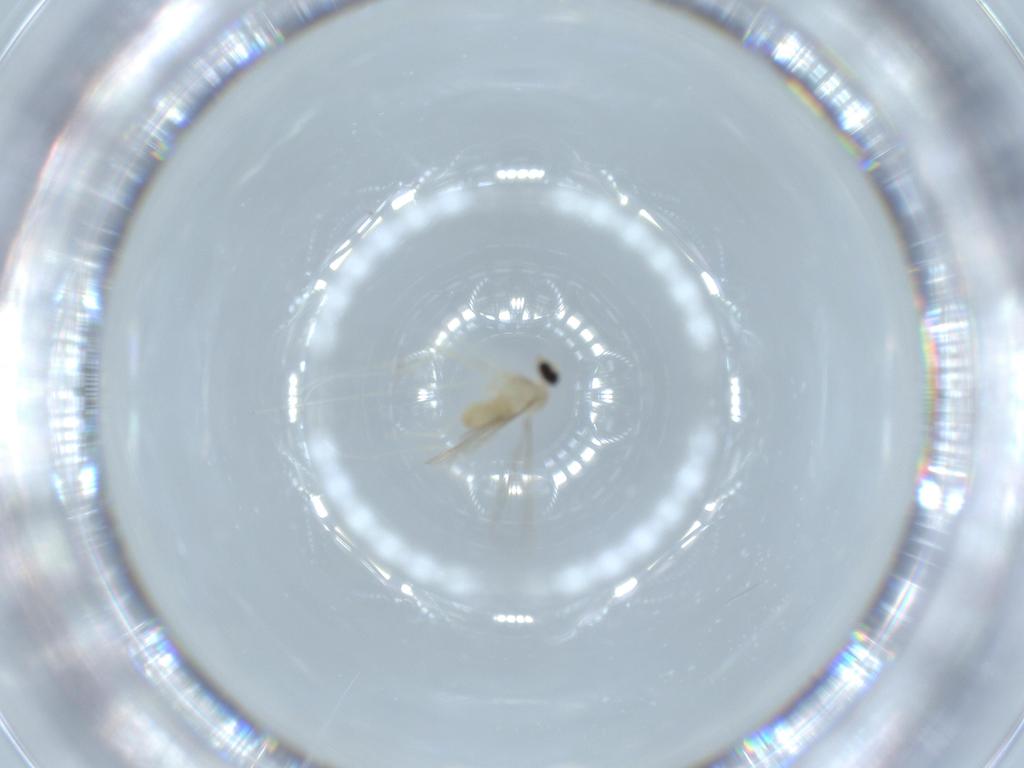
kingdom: Animalia
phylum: Arthropoda
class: Insecta
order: Diptera
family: Cecidomyiidae
